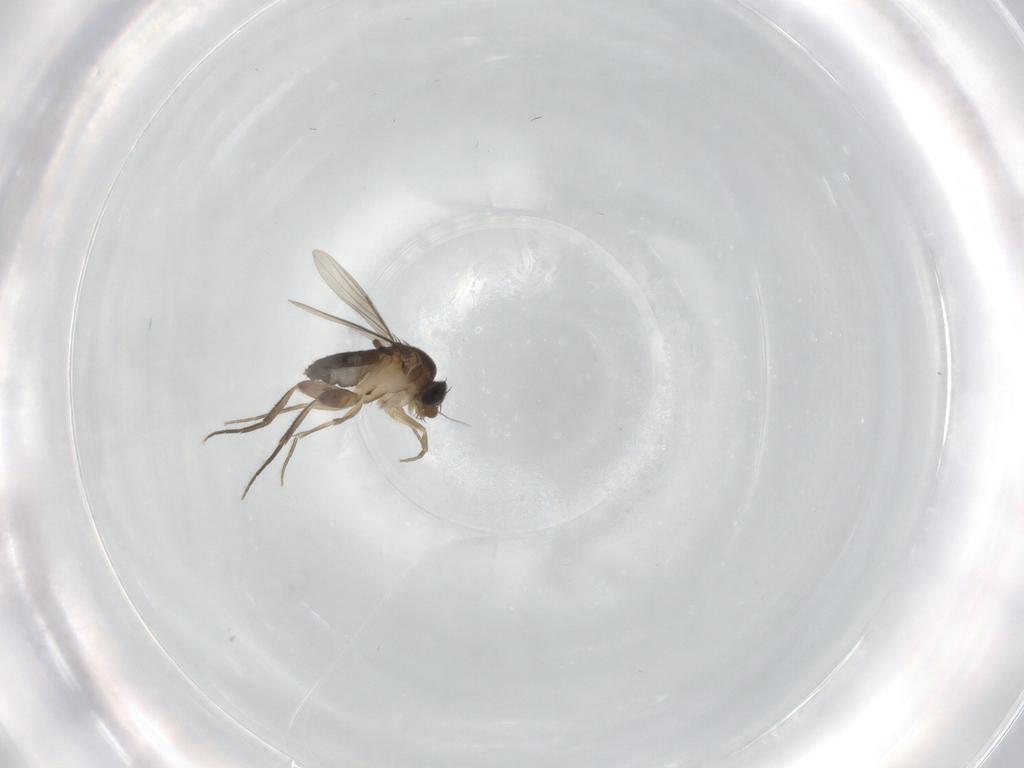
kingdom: Animalia
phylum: Arthropoda
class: Insecta
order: Diptera
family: Phoridae
